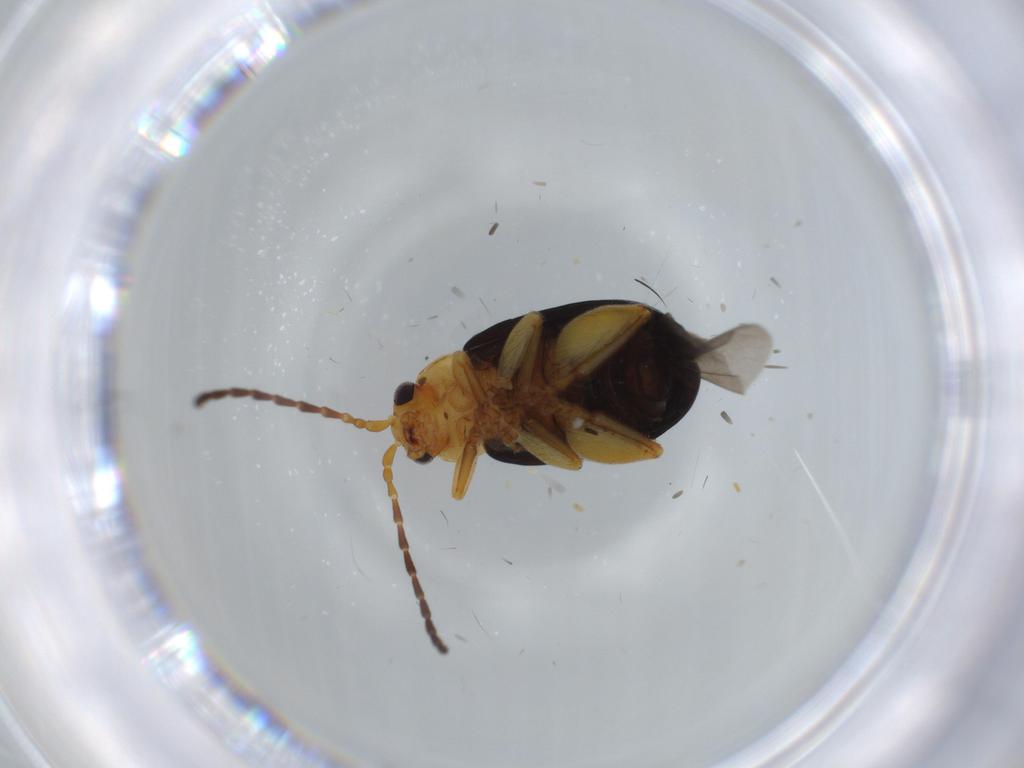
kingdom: Animalia
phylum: Arthropoda
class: Insecta
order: Coleoptera
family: Chrysomelidae
